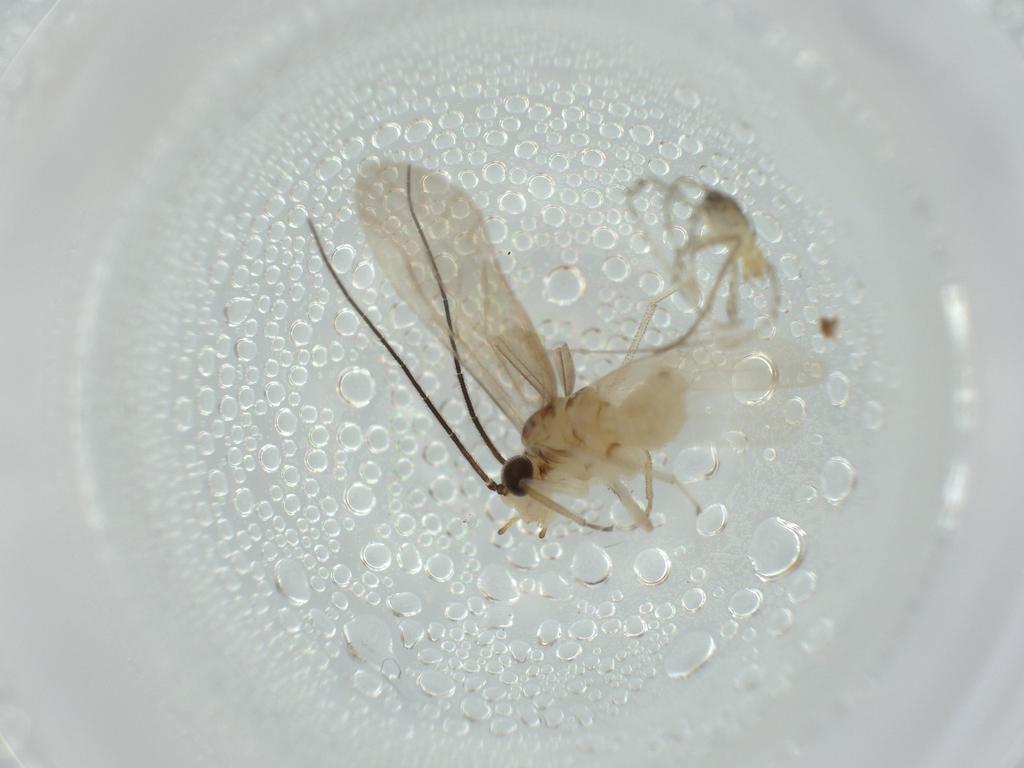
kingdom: Animalia
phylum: Arthropoda
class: Arachnida
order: Trombidiformes
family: Erythraeidae
